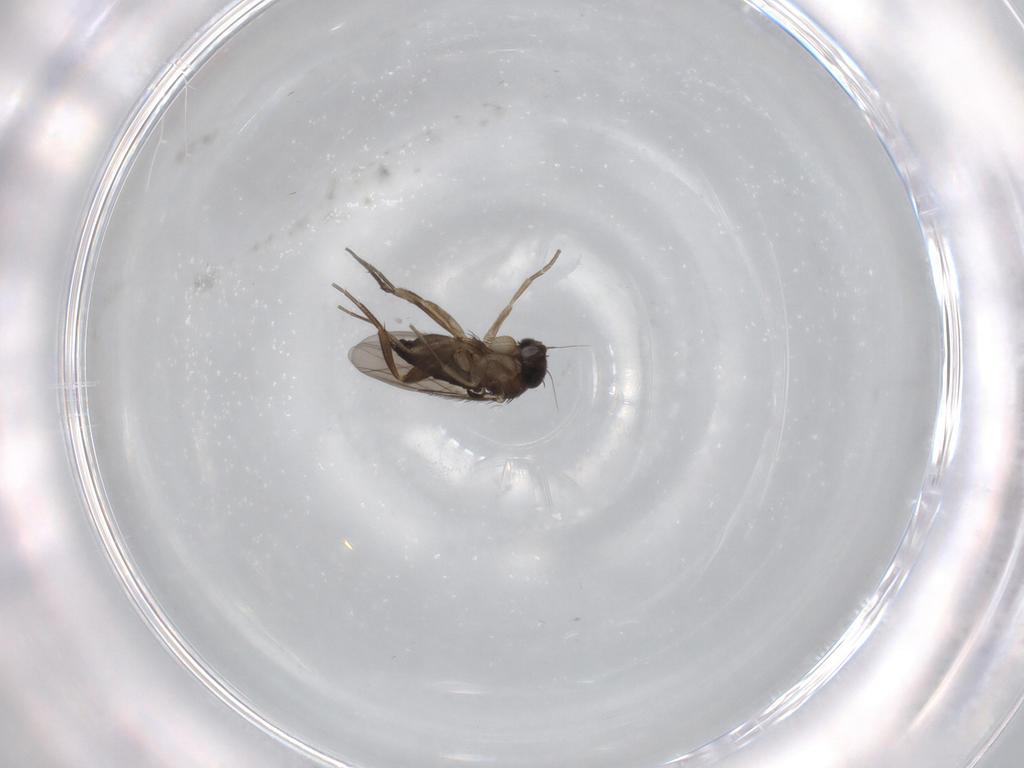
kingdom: Animalia
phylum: Arthropoda
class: Insecta
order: Diptera
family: Phoridae
